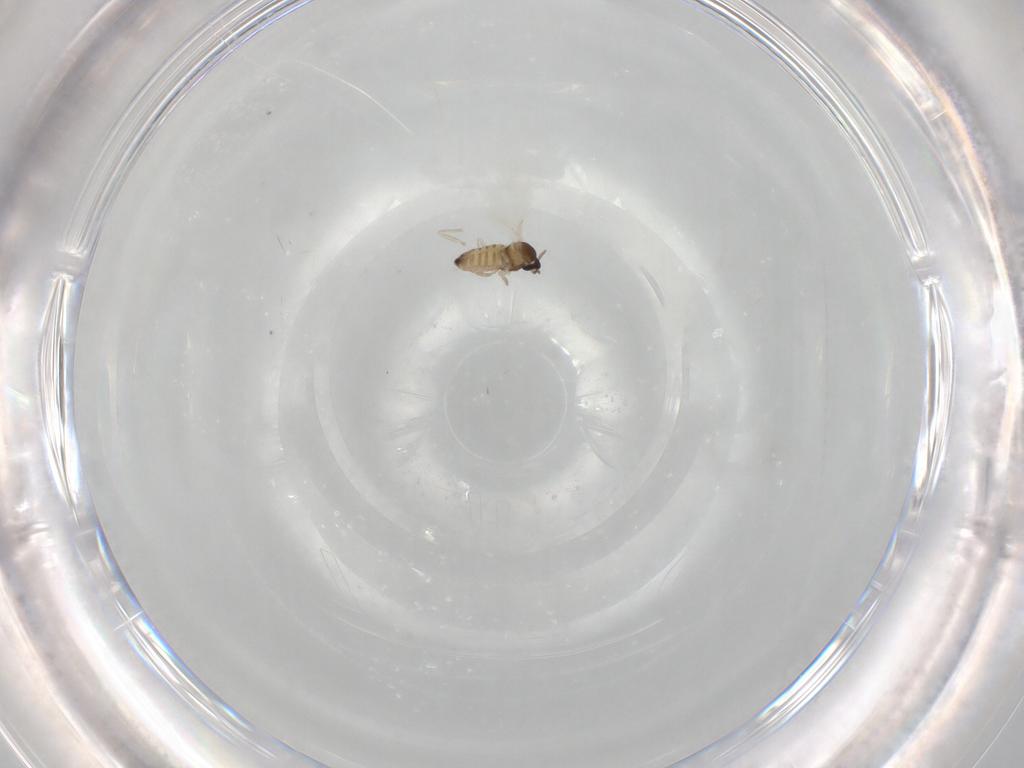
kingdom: Animalia
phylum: Arthropoda
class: Insecta
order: Diptera
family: Cecidomyiidae
